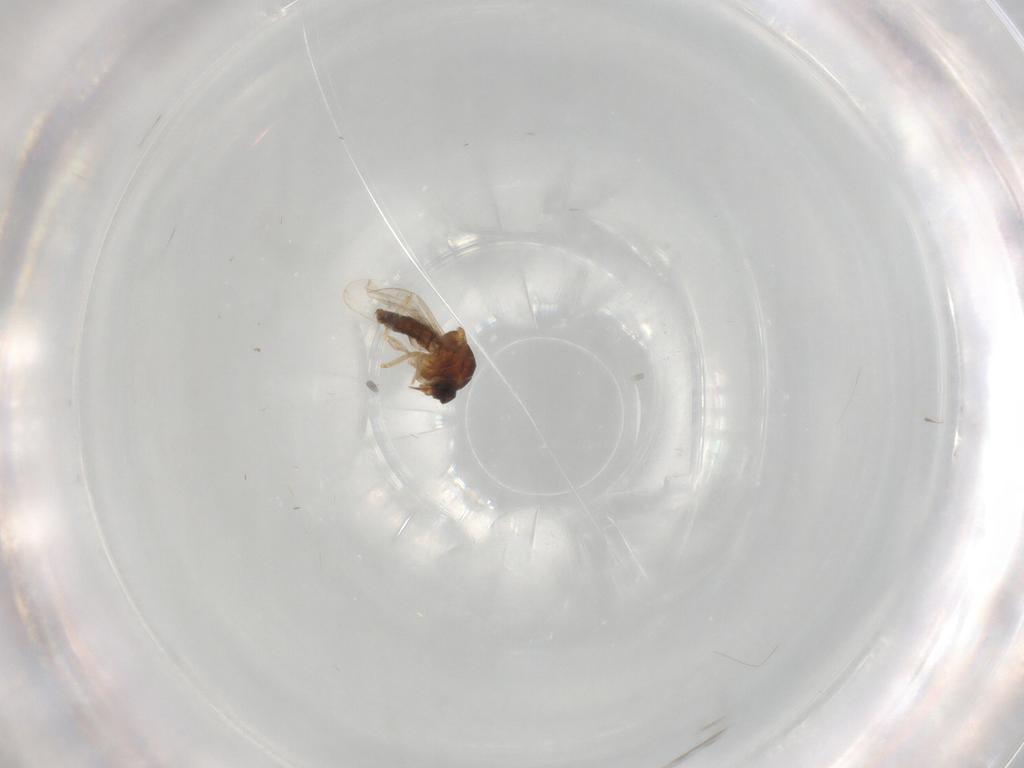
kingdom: Animalia
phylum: Arthropoda
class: Insecta
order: Diptera
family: Ceratopogonidae
